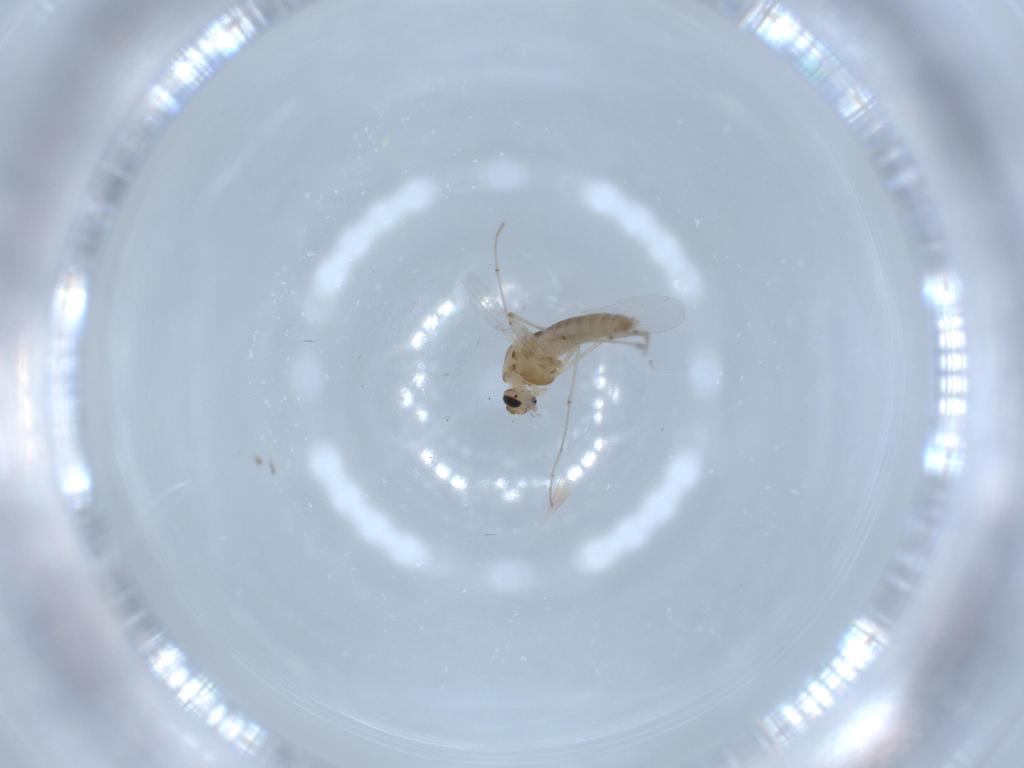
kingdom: Animalia
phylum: Arthropoda
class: Insecta
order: Diptera
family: Chironomidae
